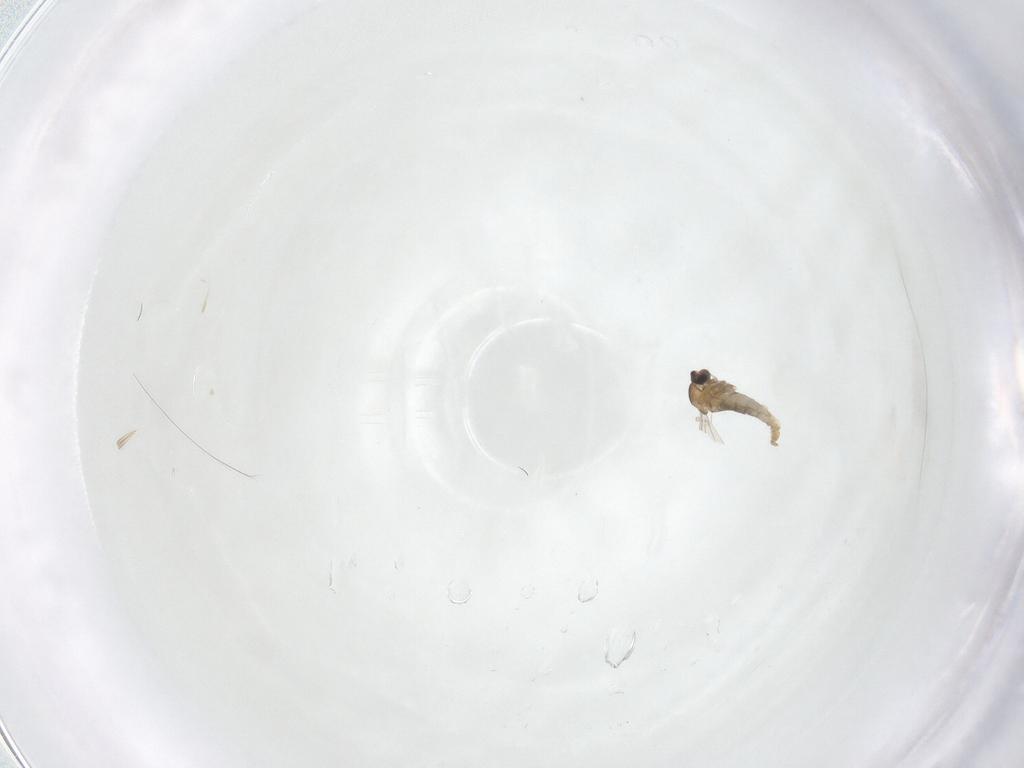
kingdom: Animalia
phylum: Arthropoda
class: Insecta
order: Diptera
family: Cecidomyiidae
